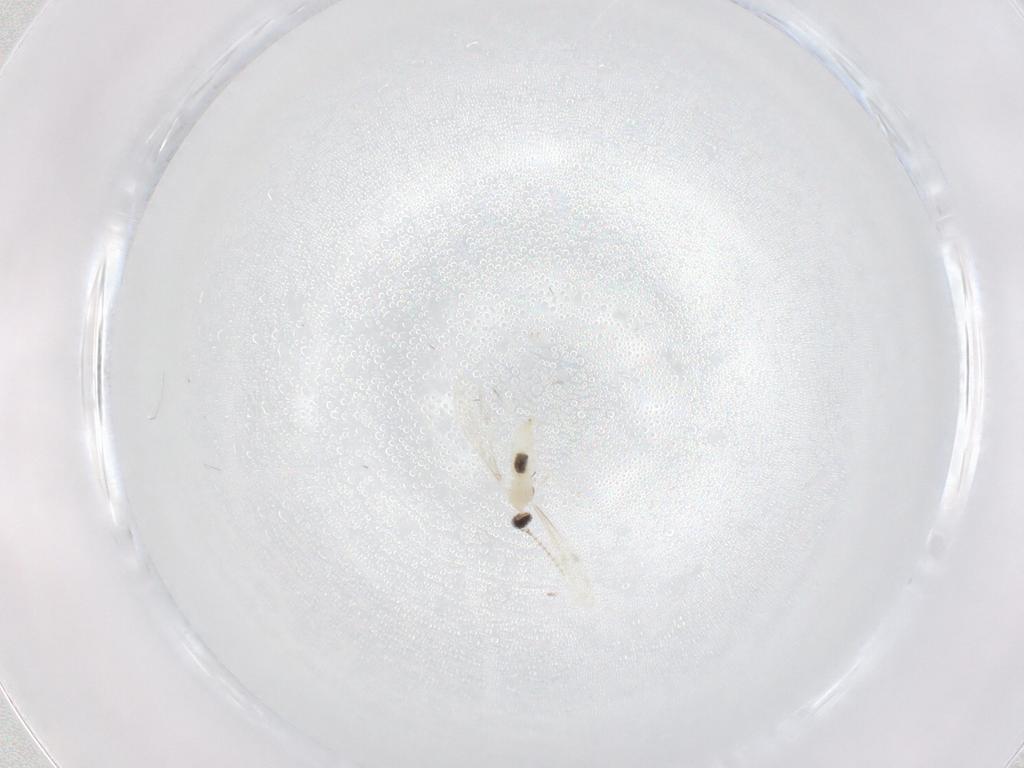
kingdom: Animalia
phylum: Arthropoda
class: Insecta
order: Diptera
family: Cecidomyiidae
